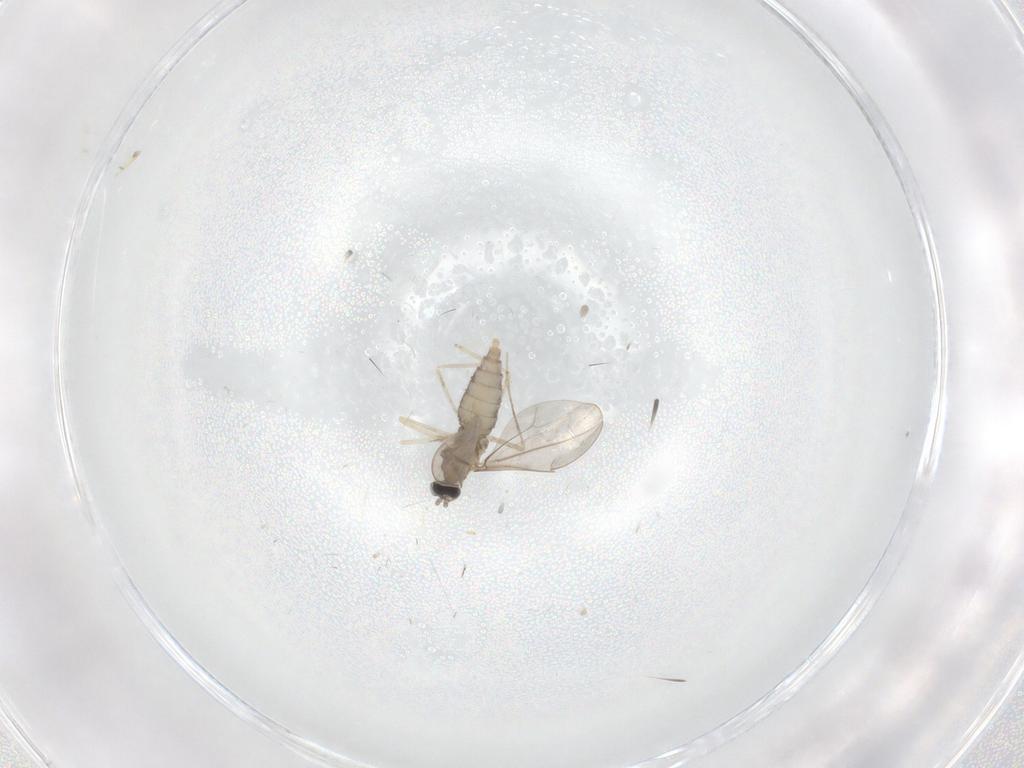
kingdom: Animalia
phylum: Arthropoda
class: Insecta
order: Diptera
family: Cecidomyiidae
